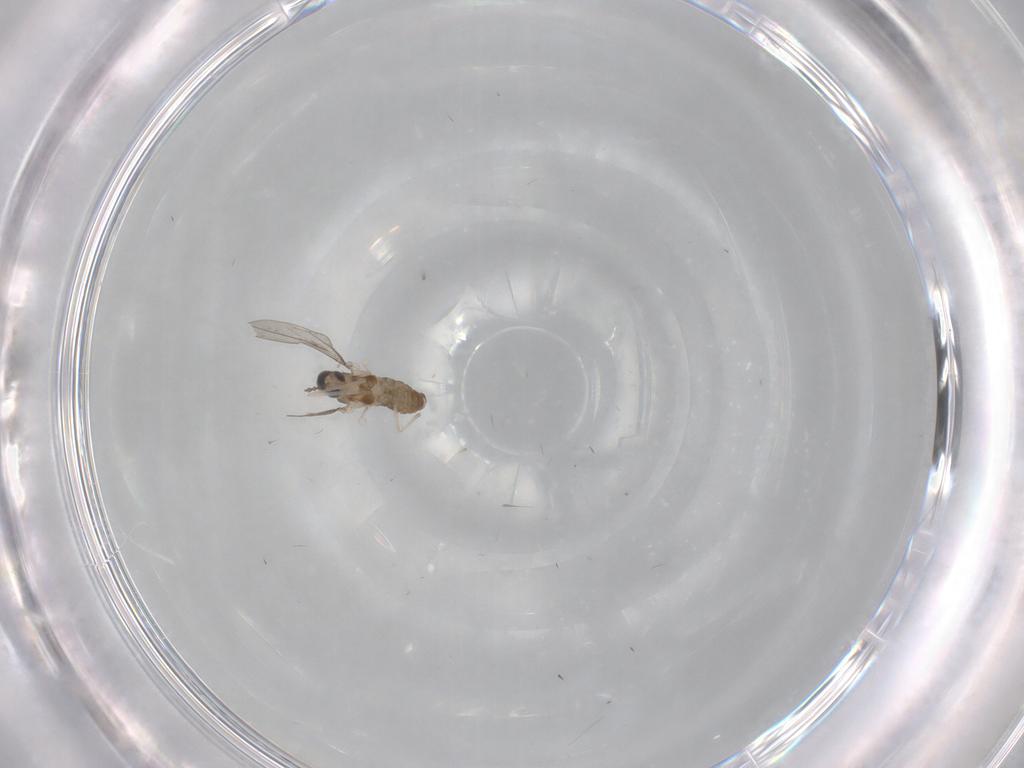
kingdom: Animalia
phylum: Arthropoda
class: Insecta
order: Diptera
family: Cecidomyiidae
